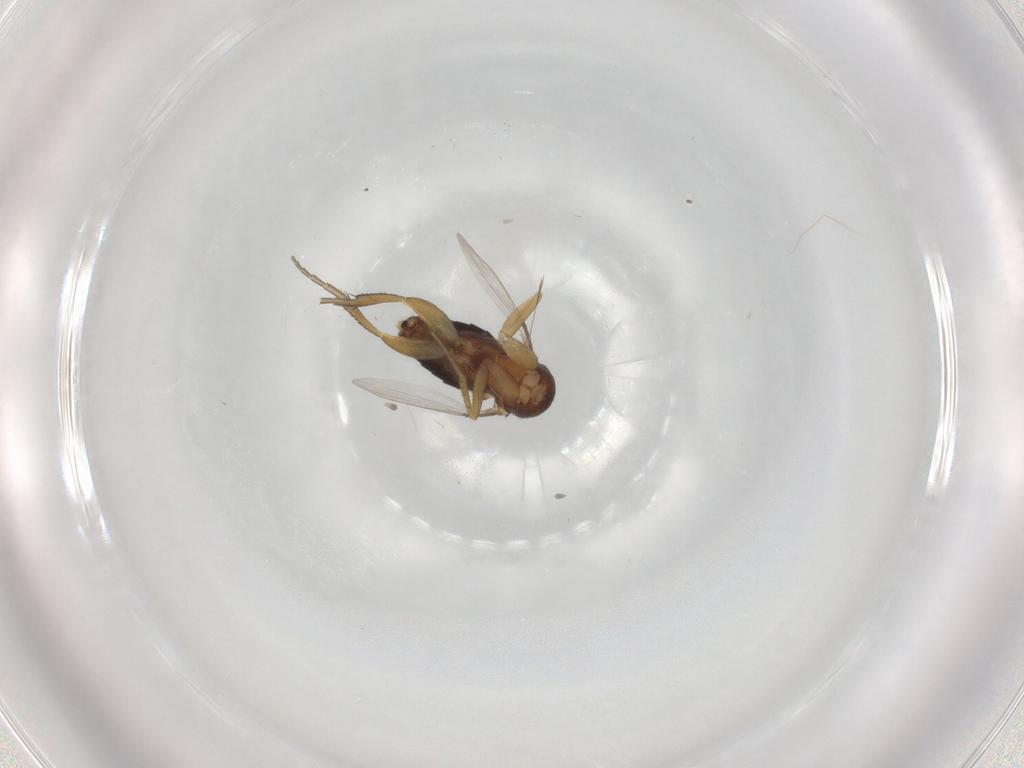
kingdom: Animalia
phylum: Arthropoda
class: Insecta
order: Diptera
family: Phoridae
